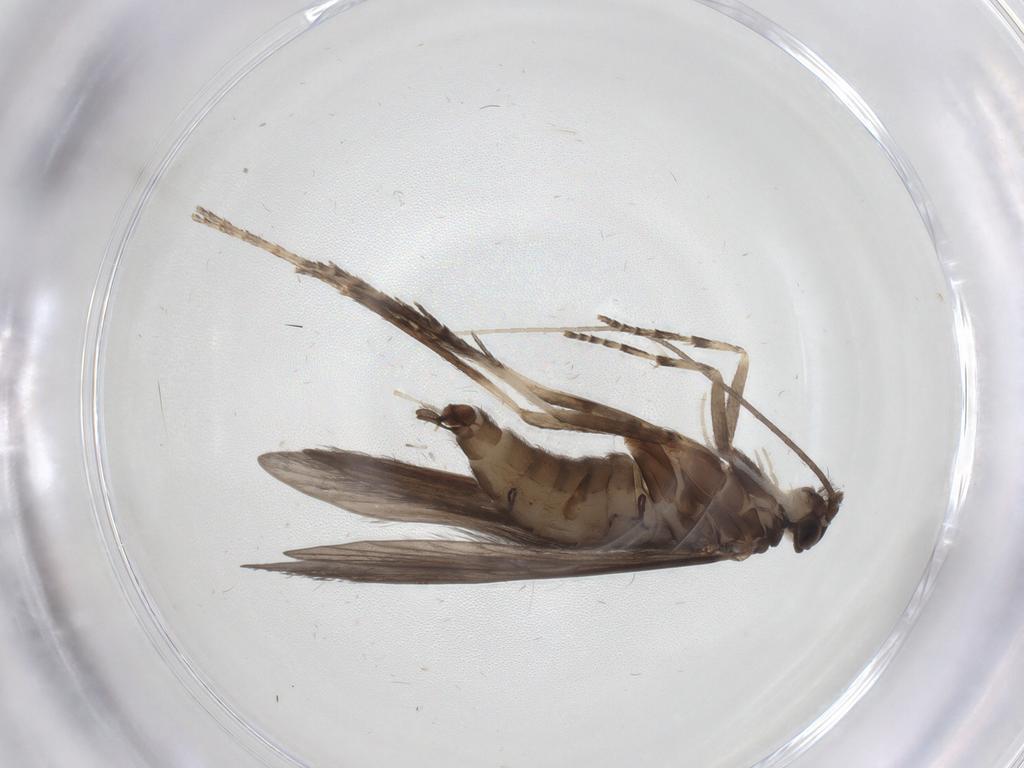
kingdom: Animalia
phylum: Arthropoda
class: Insecta
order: Trichoptera
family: Xiphocentronidae
